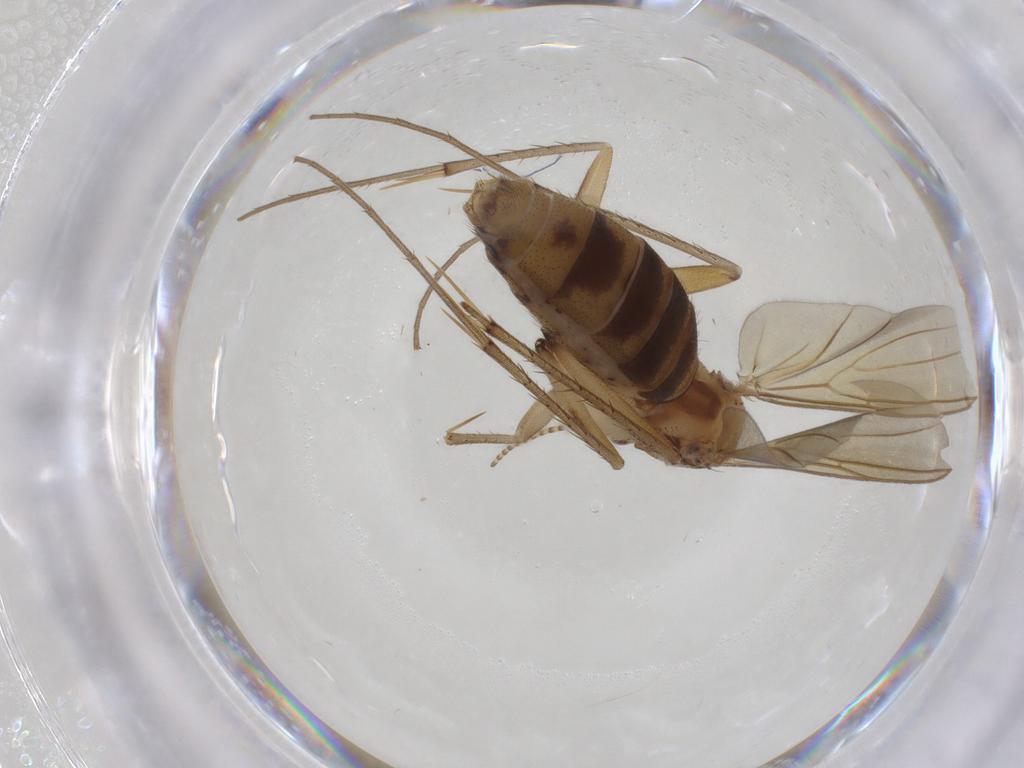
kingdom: Animalia
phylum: Arthropoda
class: Insecta
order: Diptera
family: Mycetophilidae
